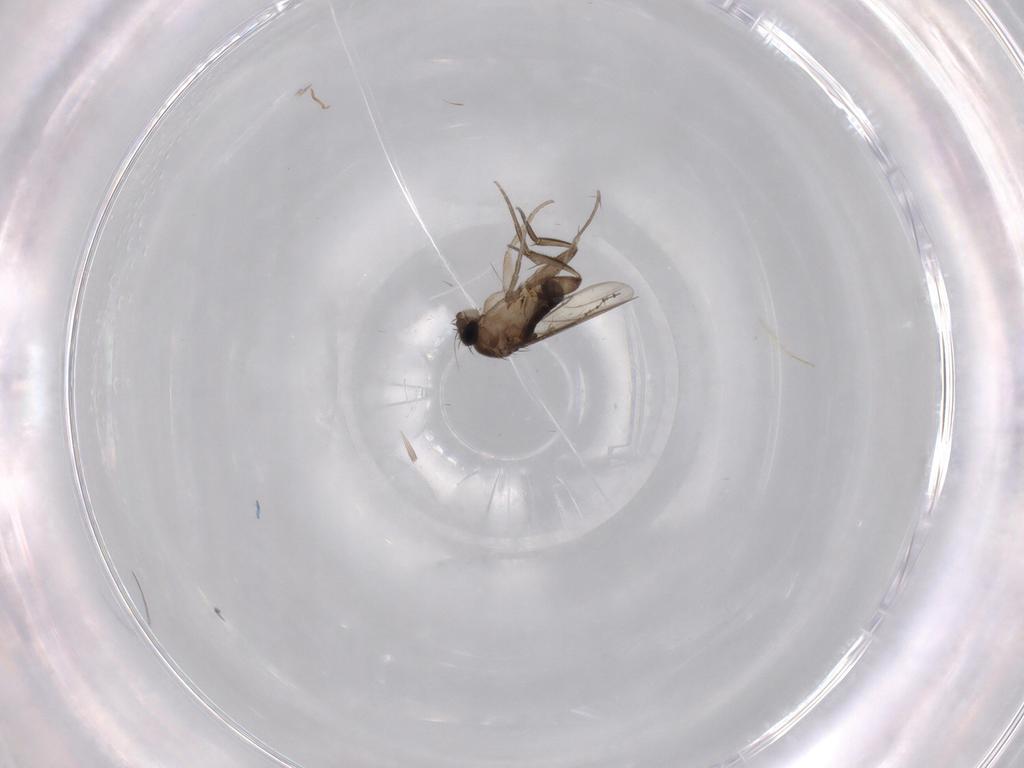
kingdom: Animalia
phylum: Arthropoda
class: Insecta
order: Diptera
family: Phoridae
